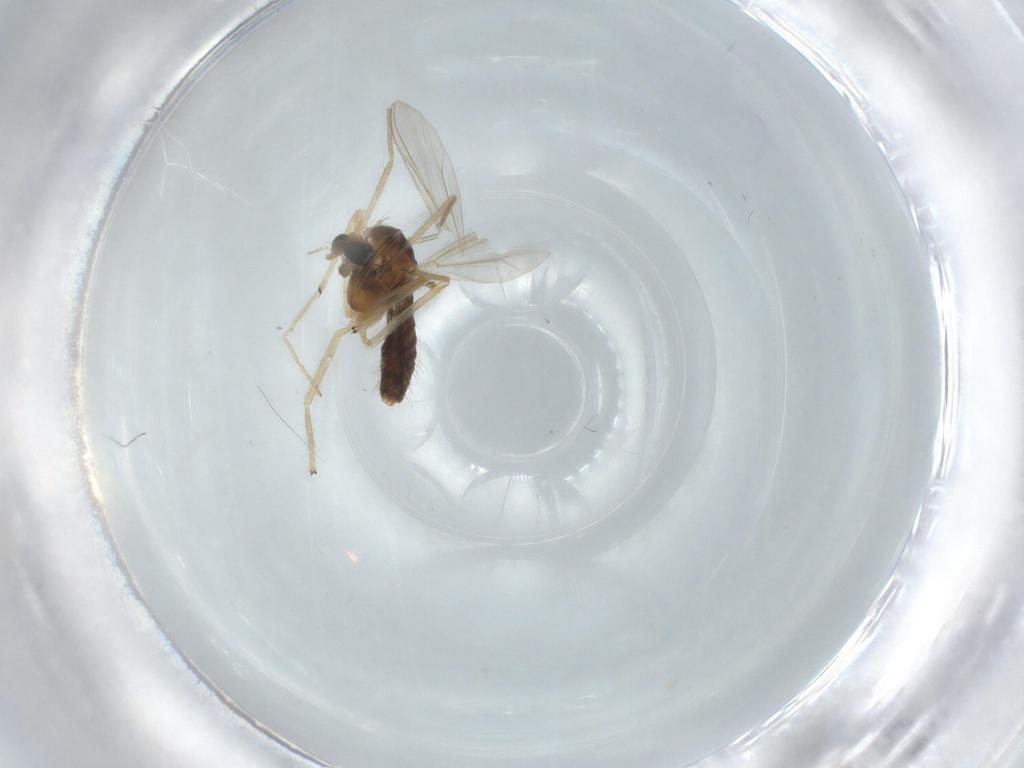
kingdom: Animalia
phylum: Arthropoda
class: Insecta
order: Diptera
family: Chironomidae
